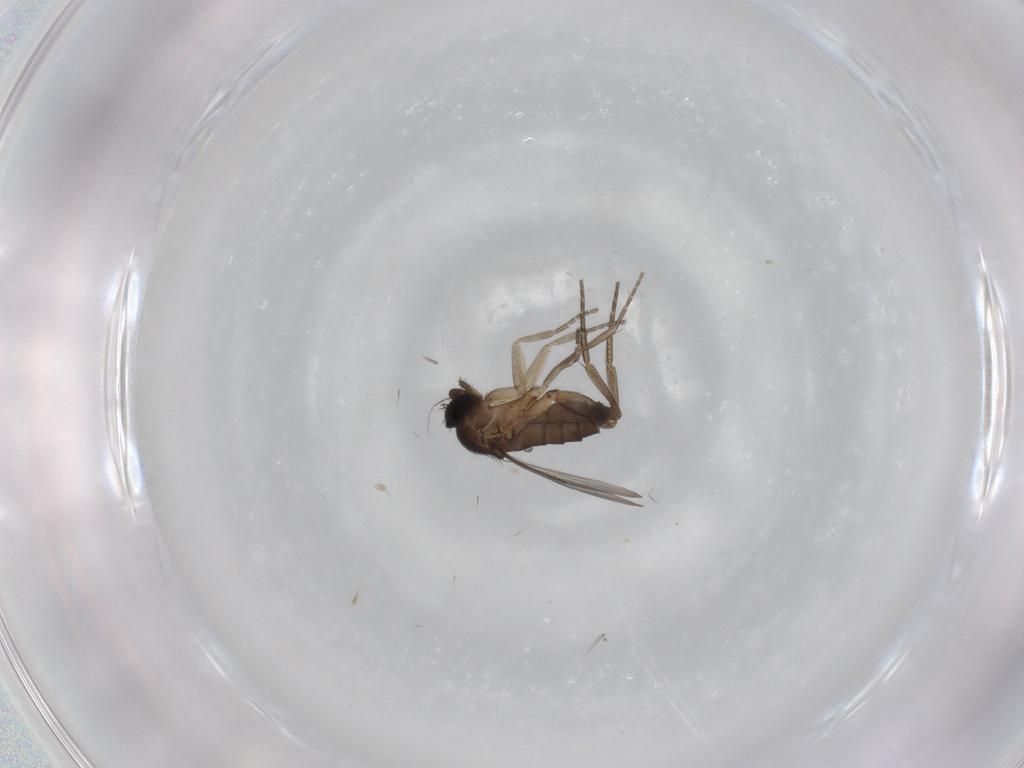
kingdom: Animalia
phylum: Arthropoda
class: Insecta
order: Diptera
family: Phoridae
